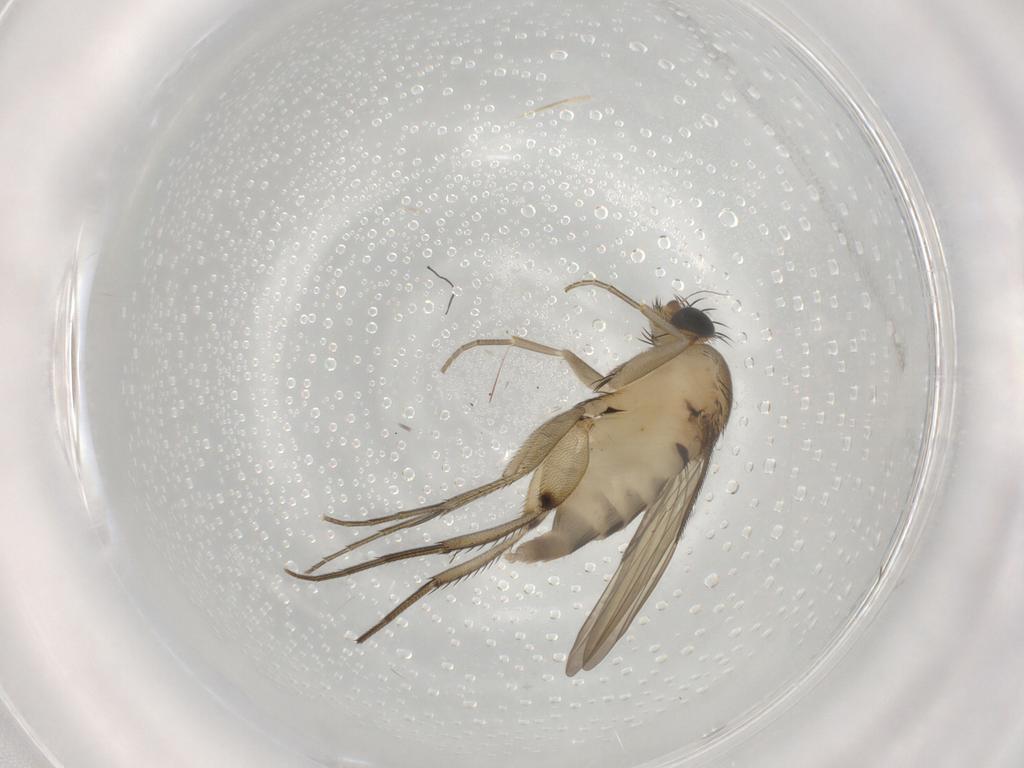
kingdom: Animalia
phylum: Arthropoda
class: Insecta
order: Diptera
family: Phoridae
